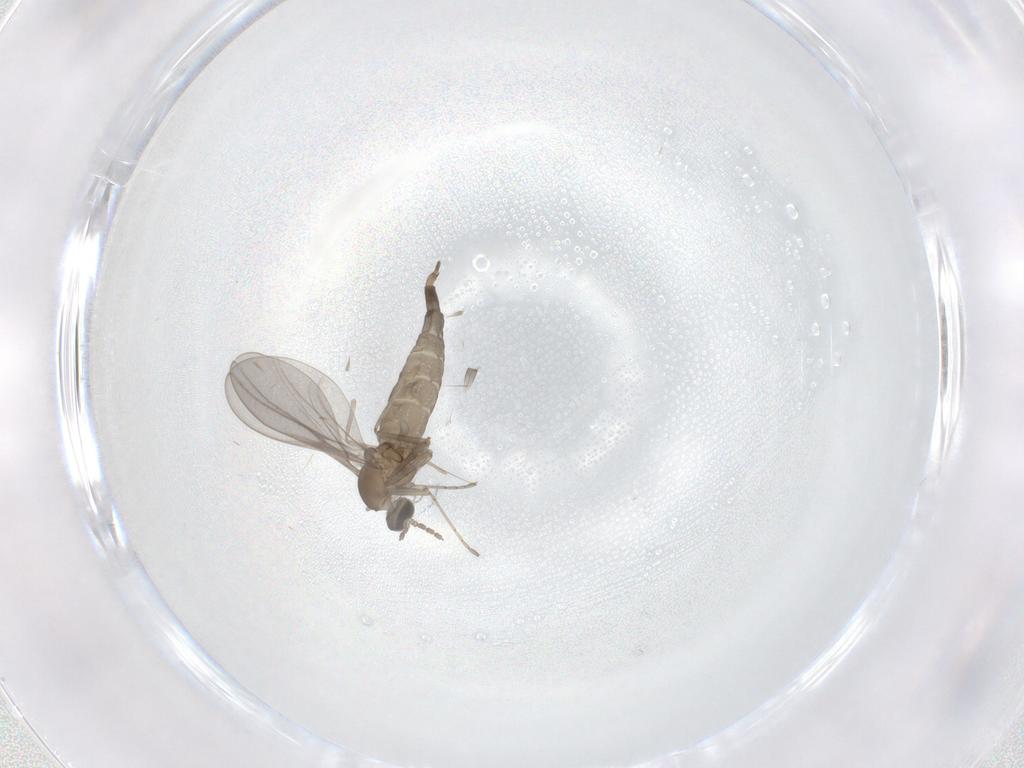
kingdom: Animalia
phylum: Arthropoda
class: Insecta
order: Diptera
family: Cecidomyiidae
